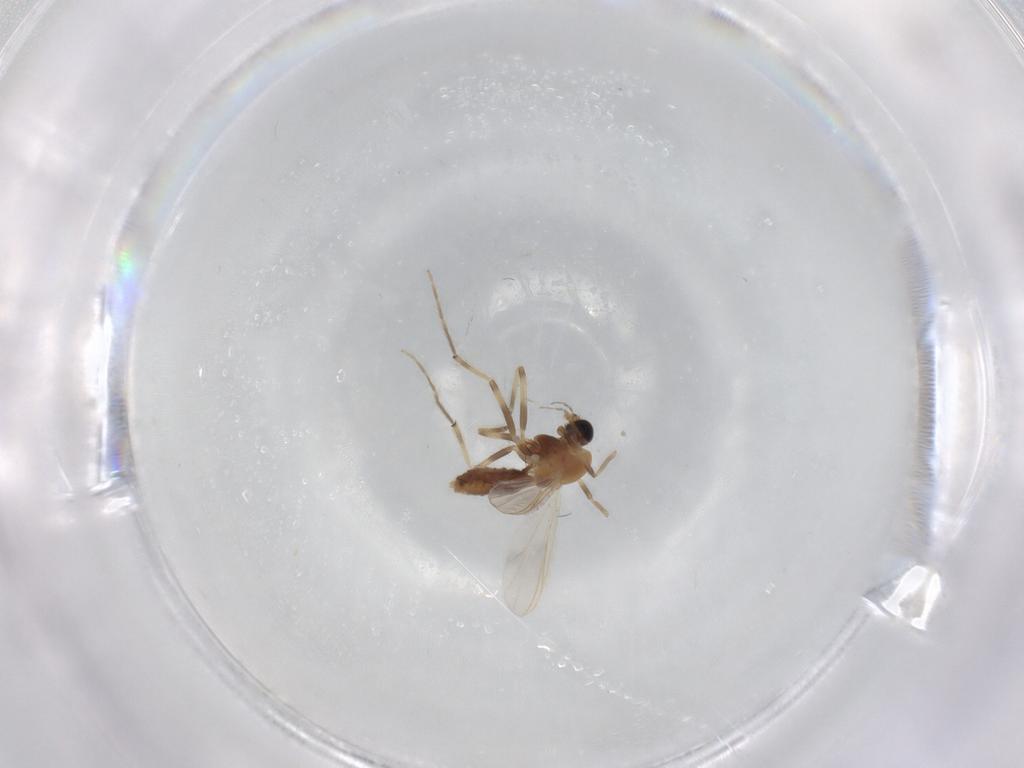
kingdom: Animalia
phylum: Arthropoda
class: Insecta
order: Diptera
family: Chironomidae
